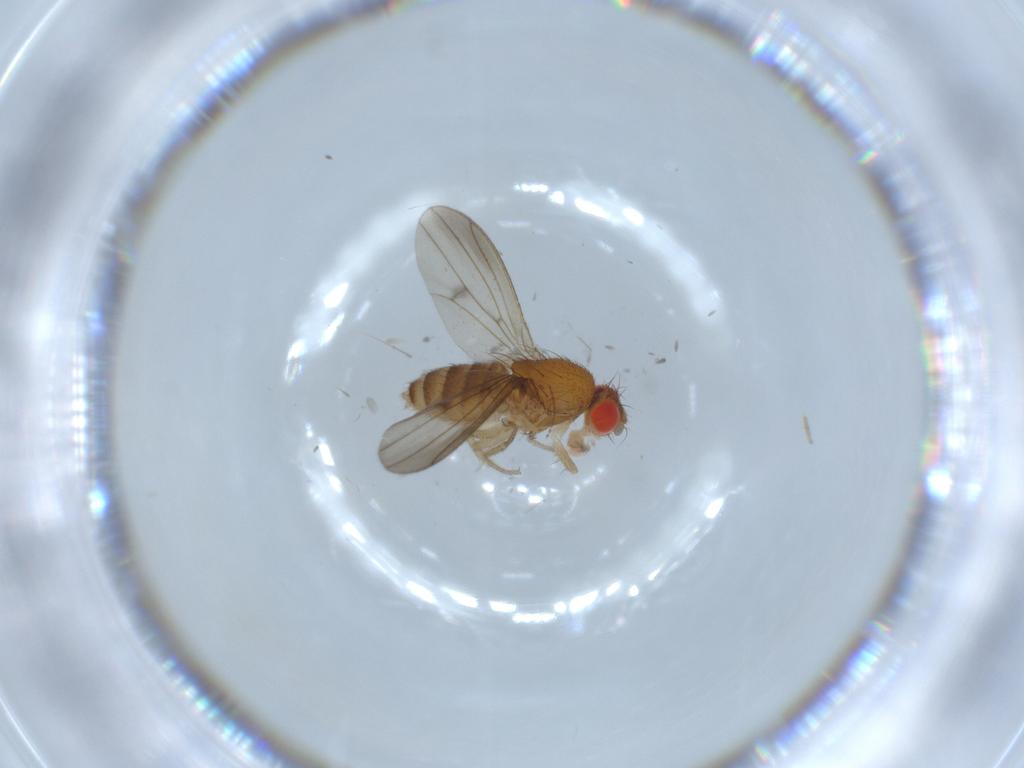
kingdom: Animalia
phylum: Arthropoda
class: Insecta
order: Diptera
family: Drosophilidae
